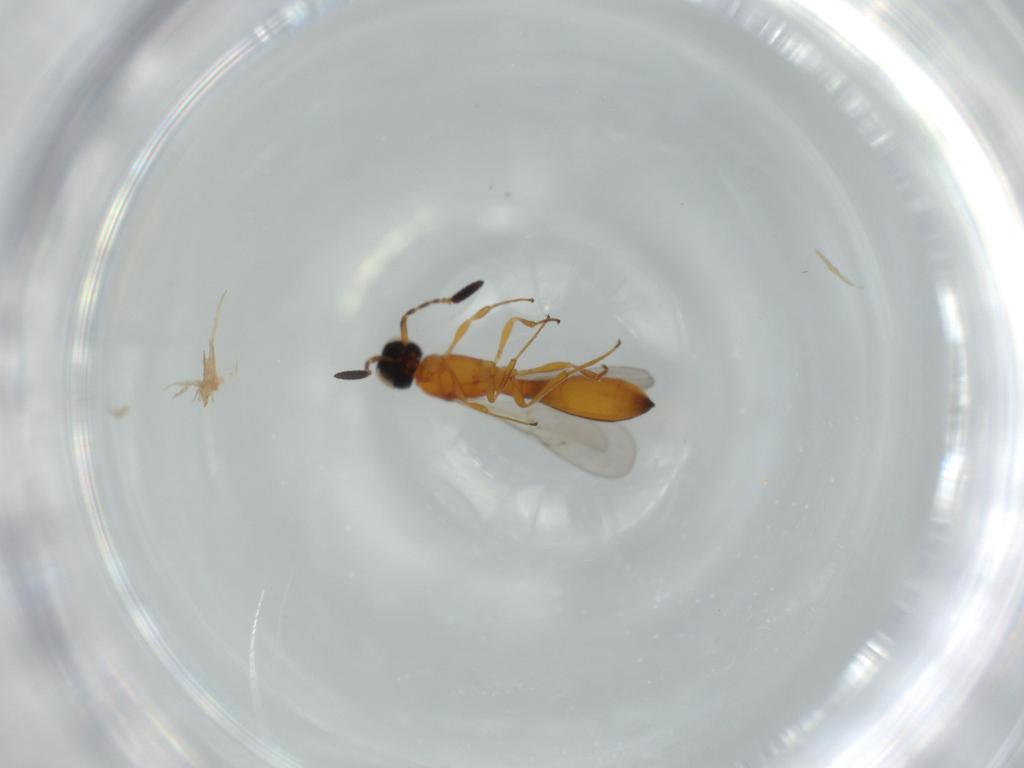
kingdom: Animalia
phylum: Arthropoda
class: Insecta
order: Hymenoptera
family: Scelionidae
